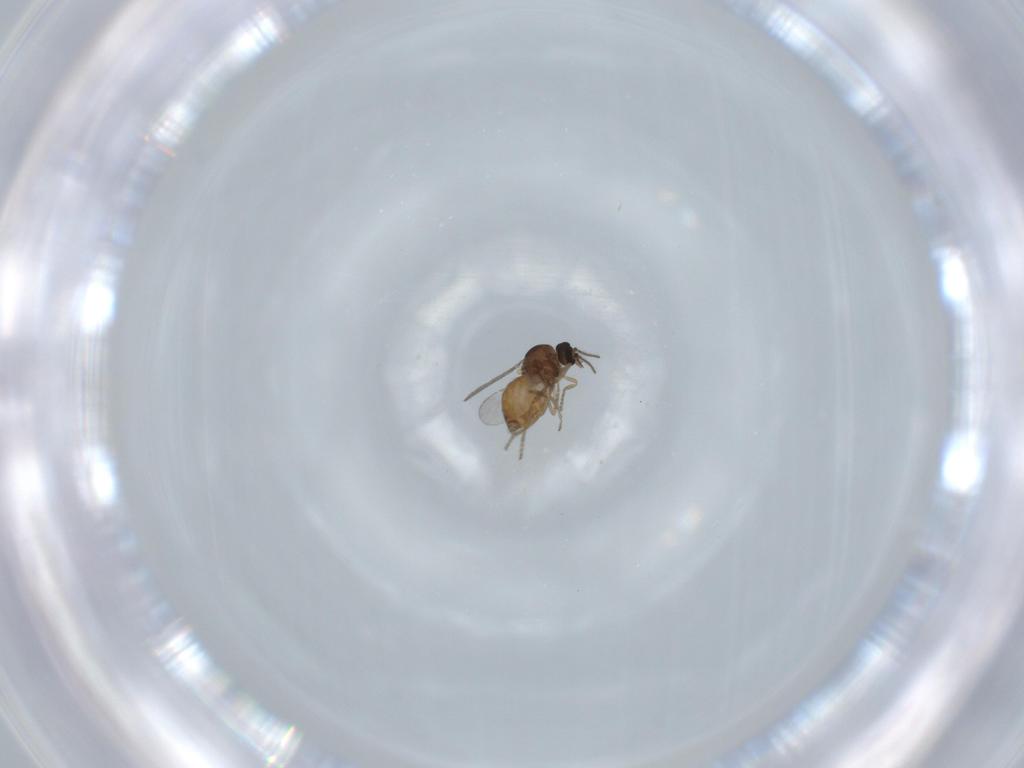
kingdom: Animalia
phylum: Arthropoda
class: Insecta
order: Diptera
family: Ceratopogonidae
